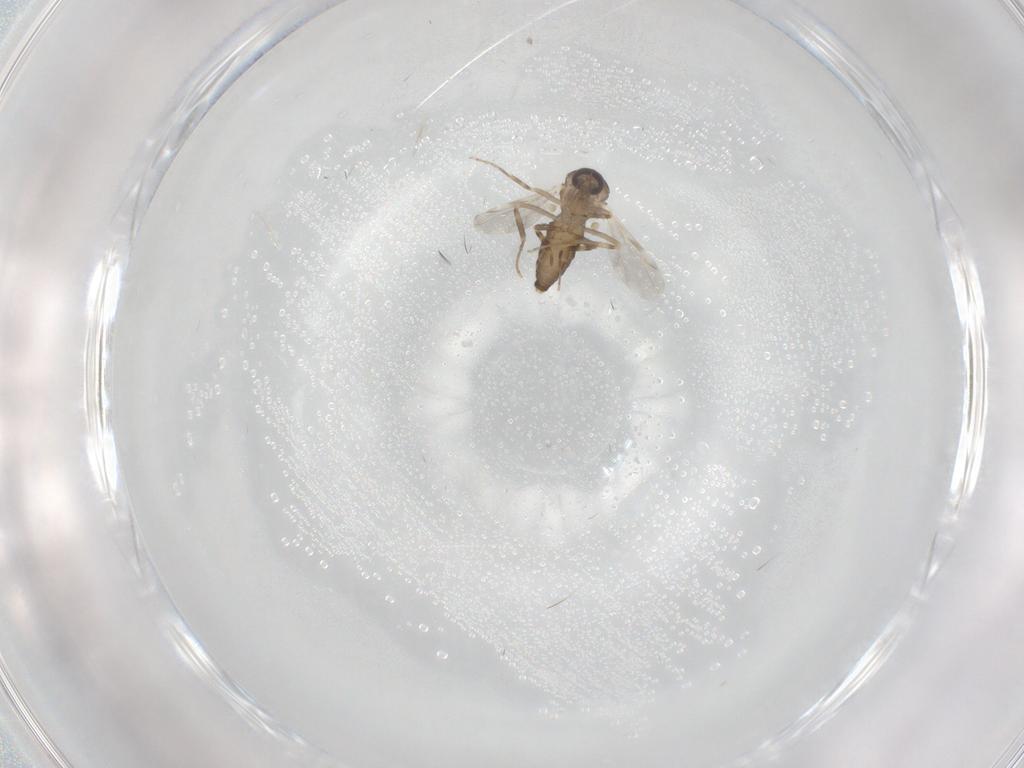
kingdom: Animalia
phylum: Arthropoda
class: Insecta
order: Diptera
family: Ceratopogonidae
